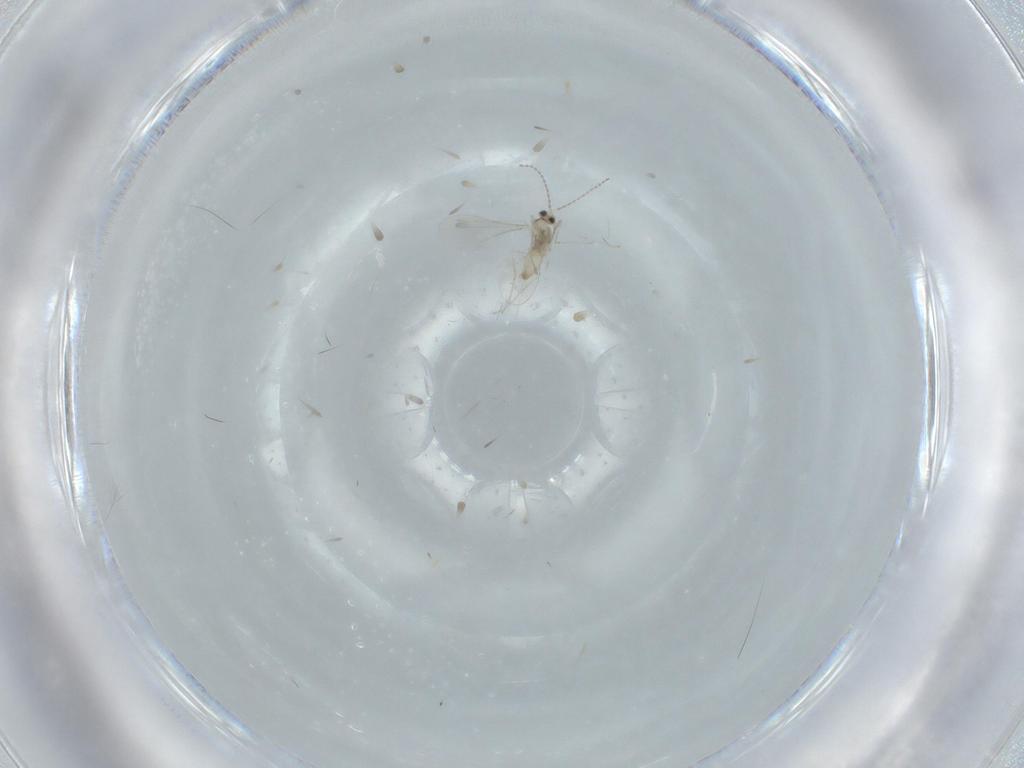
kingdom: Animalia
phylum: Arthropoda
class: Insecta
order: Diptera
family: Cecidomyiidae
